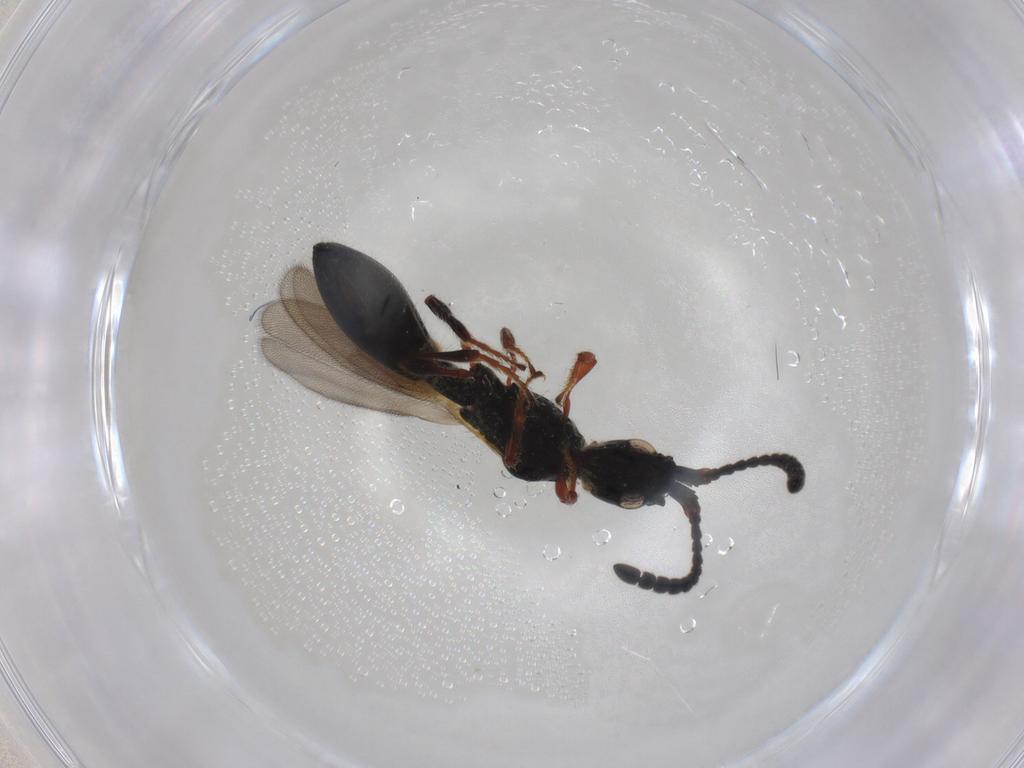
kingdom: Animalia
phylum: Arthropoda
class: Insecta
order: Hymenoptera
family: Diapriidae
